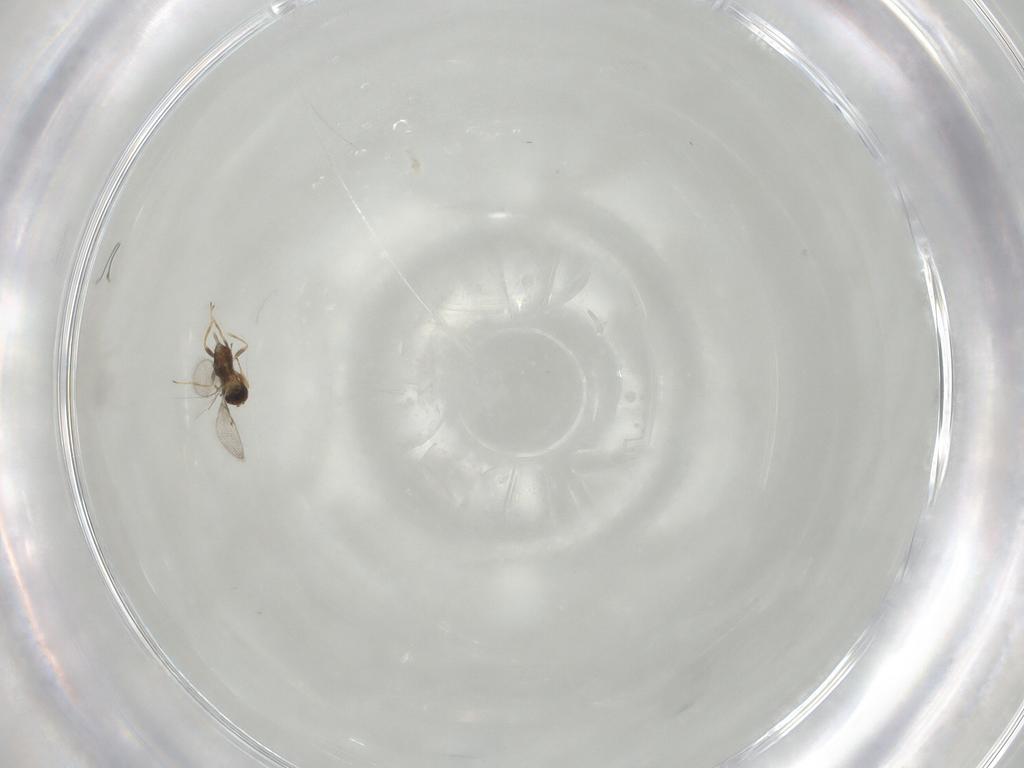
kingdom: Animalia
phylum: Arthropoda
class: Insecta
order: Hymenoptera
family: Trichogrammatidae
